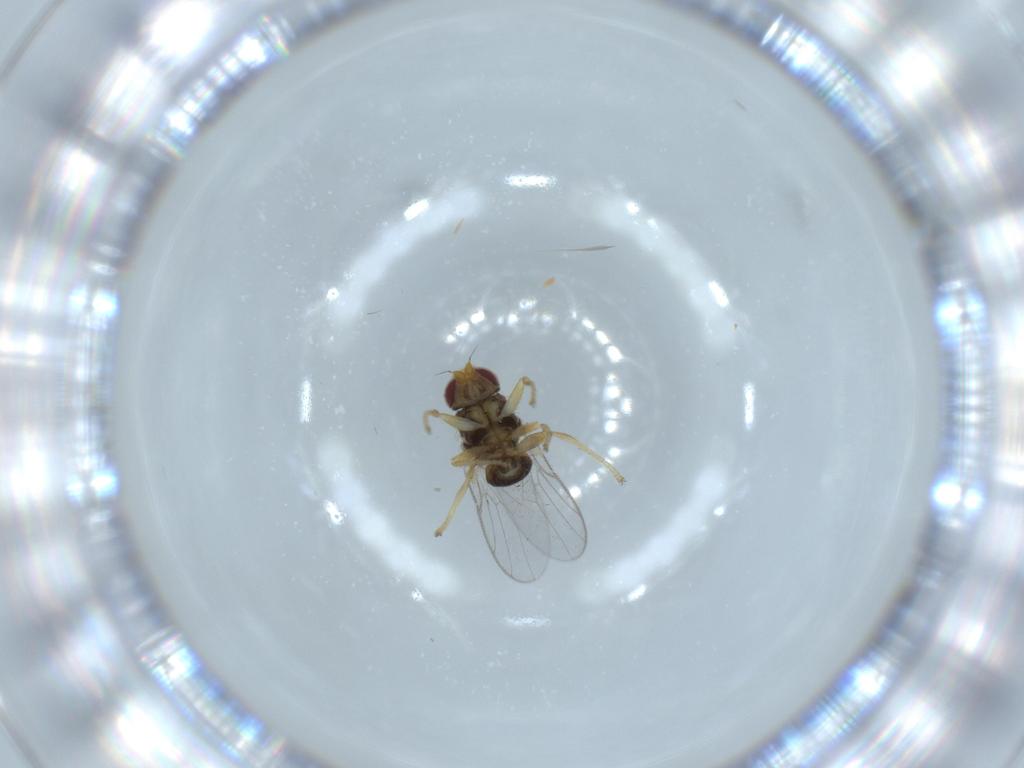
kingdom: Animalia
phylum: Arthropoda
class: Insecta
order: Diptera
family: Chloropidae
